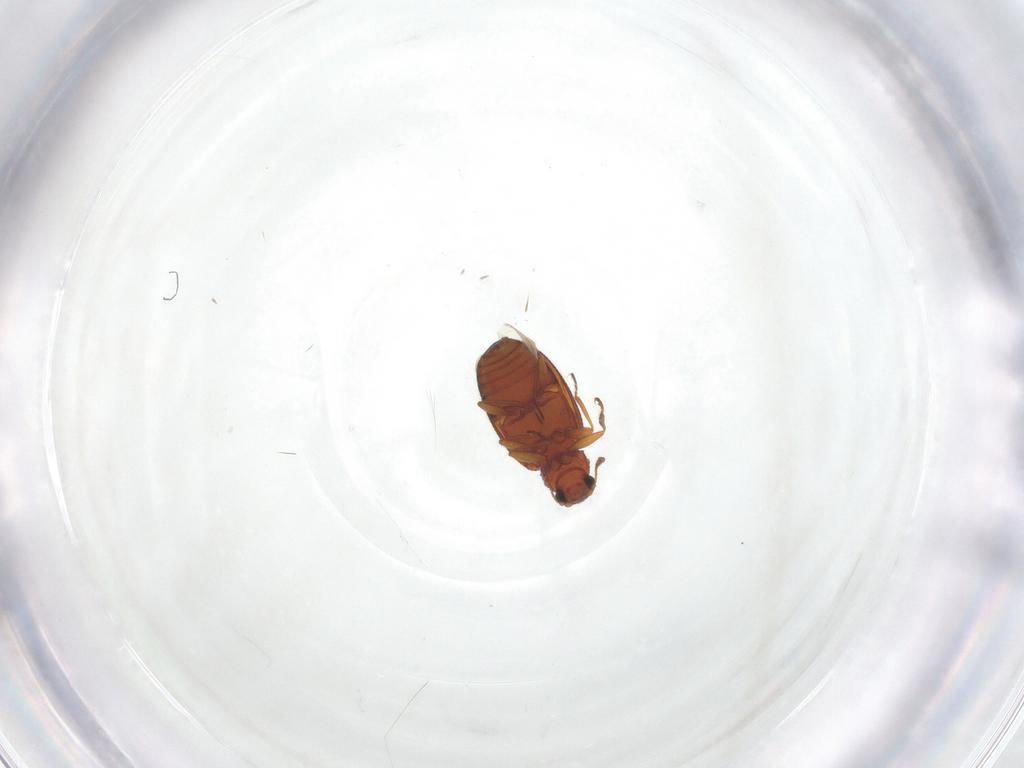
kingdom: Animalia
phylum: Arthropoda
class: Insecta
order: Coleoptera
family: Latridiidae
